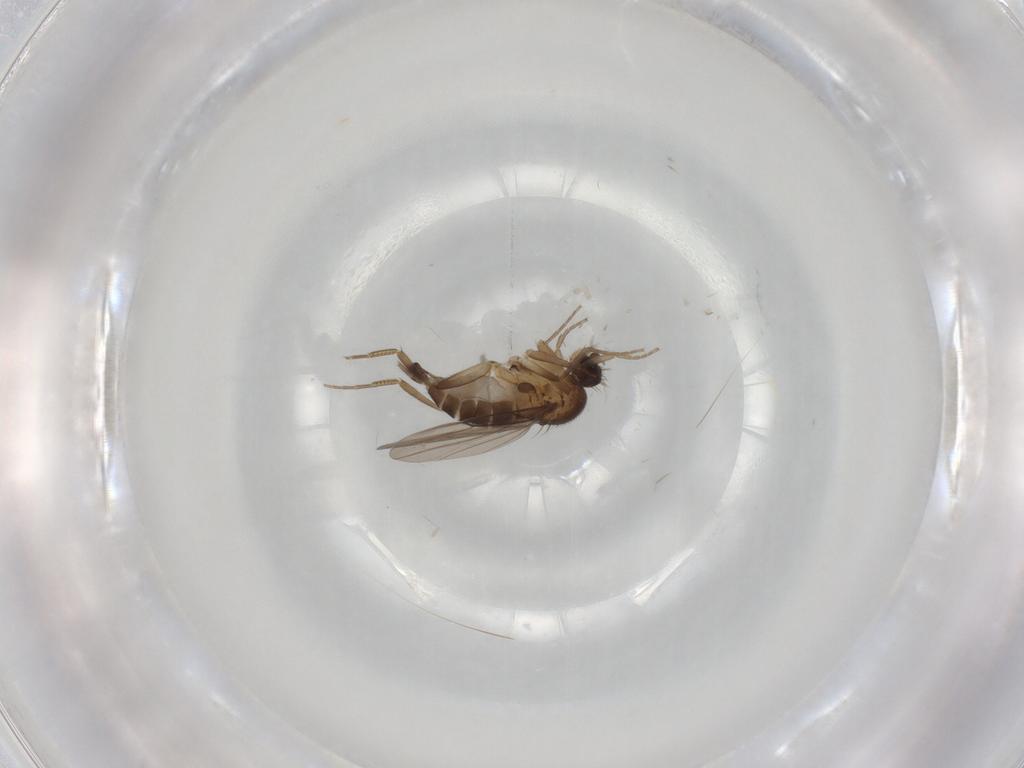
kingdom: Animalia
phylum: Arthropoda
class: Insecta
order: Diptera
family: Phoridae
